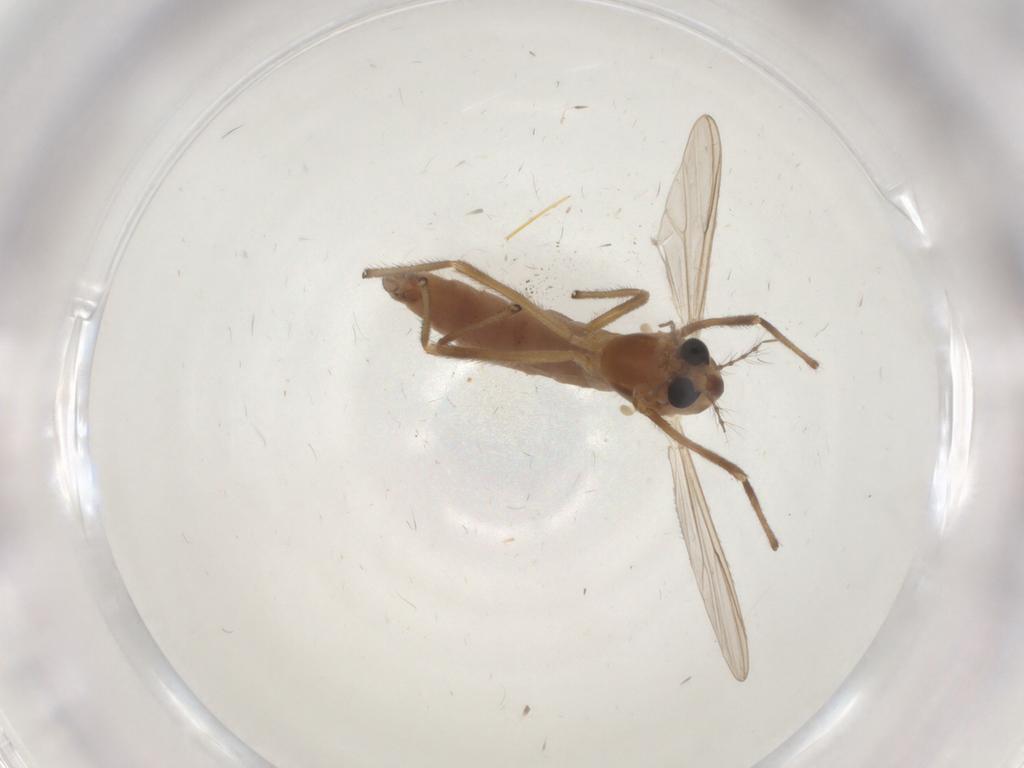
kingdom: Animalia
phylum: Arthropoda
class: Insecta
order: Diptera
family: Chironomidae
